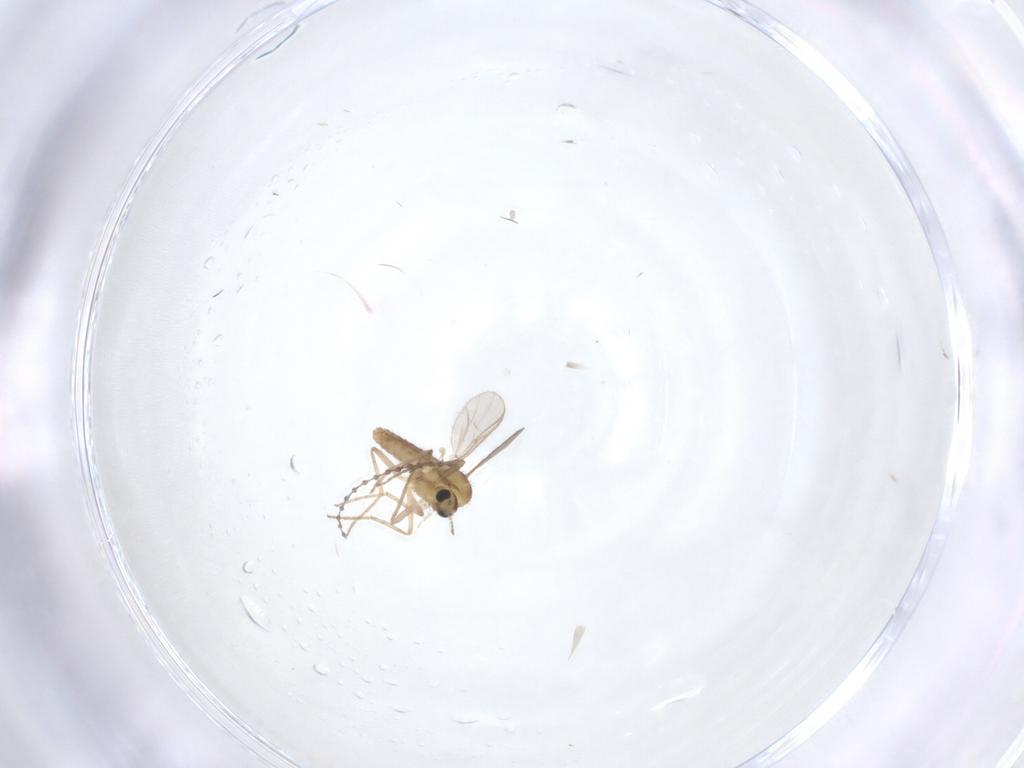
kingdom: Animalia
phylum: Arthropoda
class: Insecta
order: Diptera
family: Chironomidae
